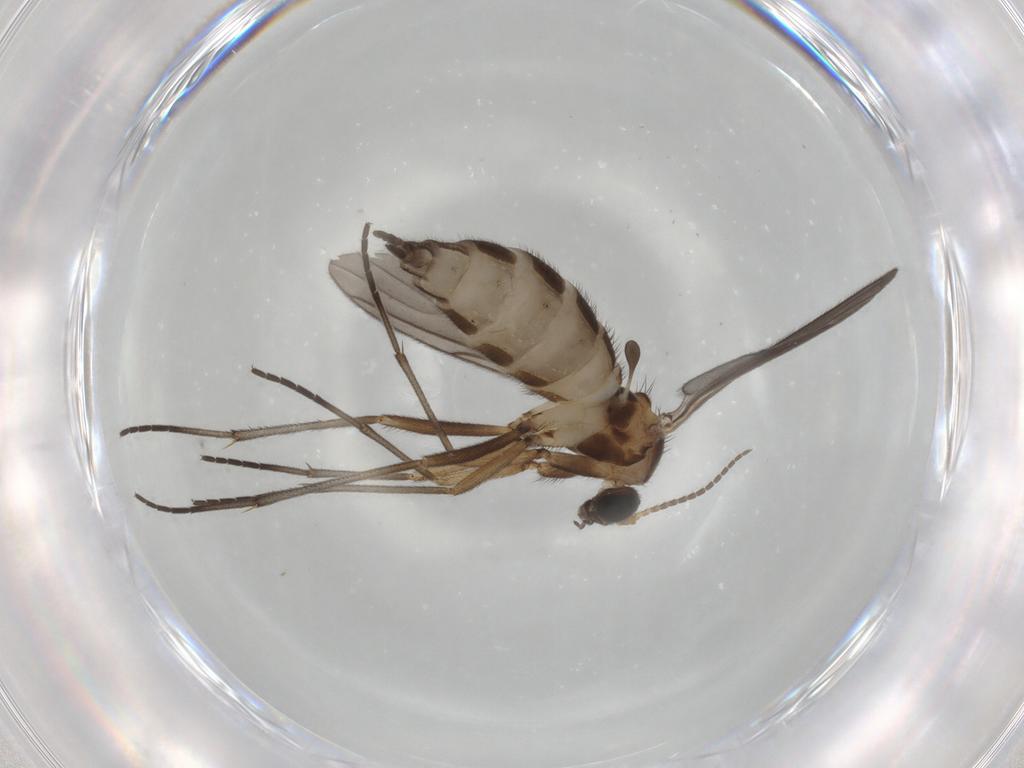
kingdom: Animalia
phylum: Arthropoda
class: Insecta
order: Diptera
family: Sciaridae
